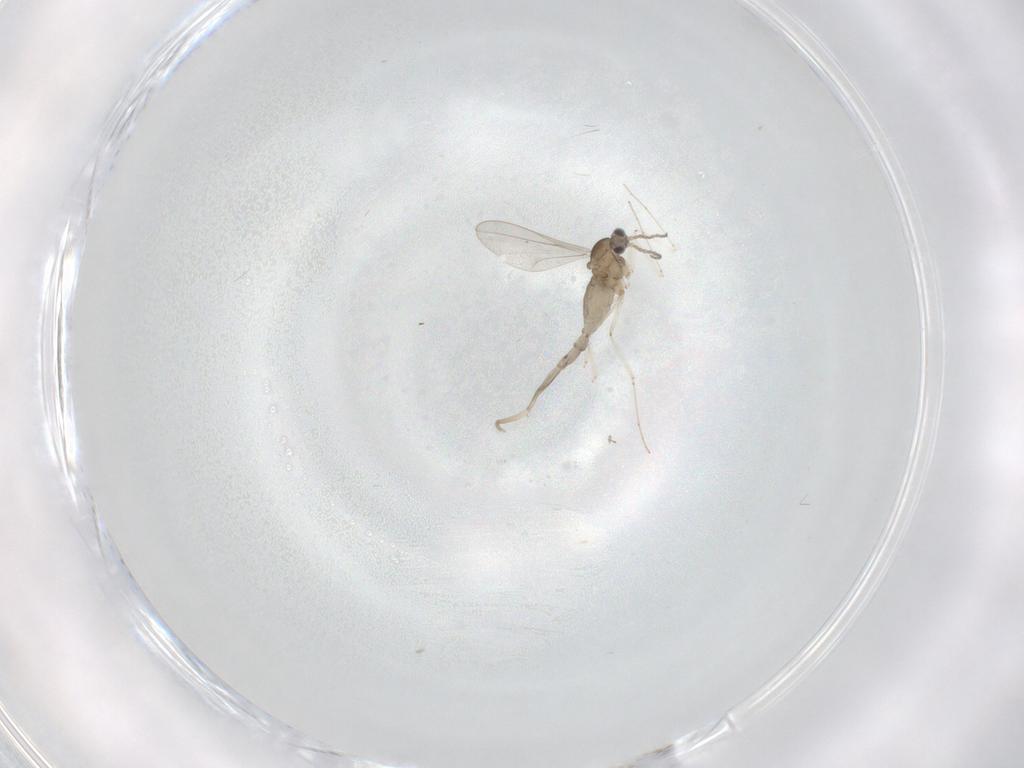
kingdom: Animalia
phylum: Arthropoda
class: Insecta
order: Diptera
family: Cecidomyiidae
